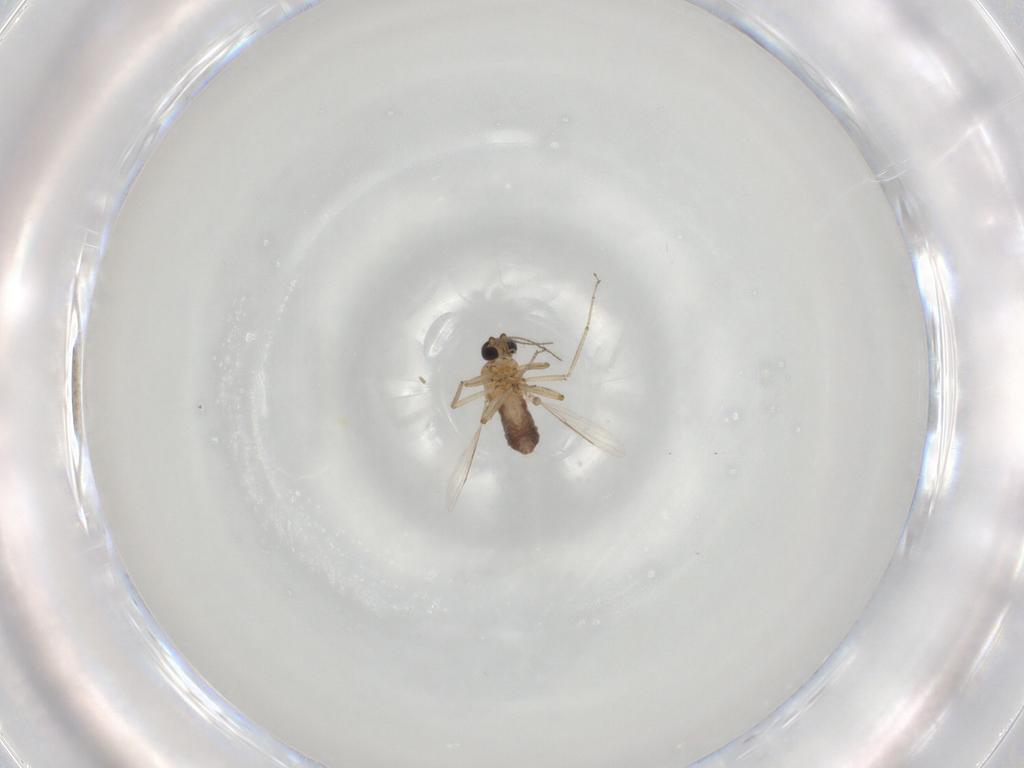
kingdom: Animalia
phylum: Arthropoda
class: Insecta
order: Diptera
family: Ceratopogonidae
